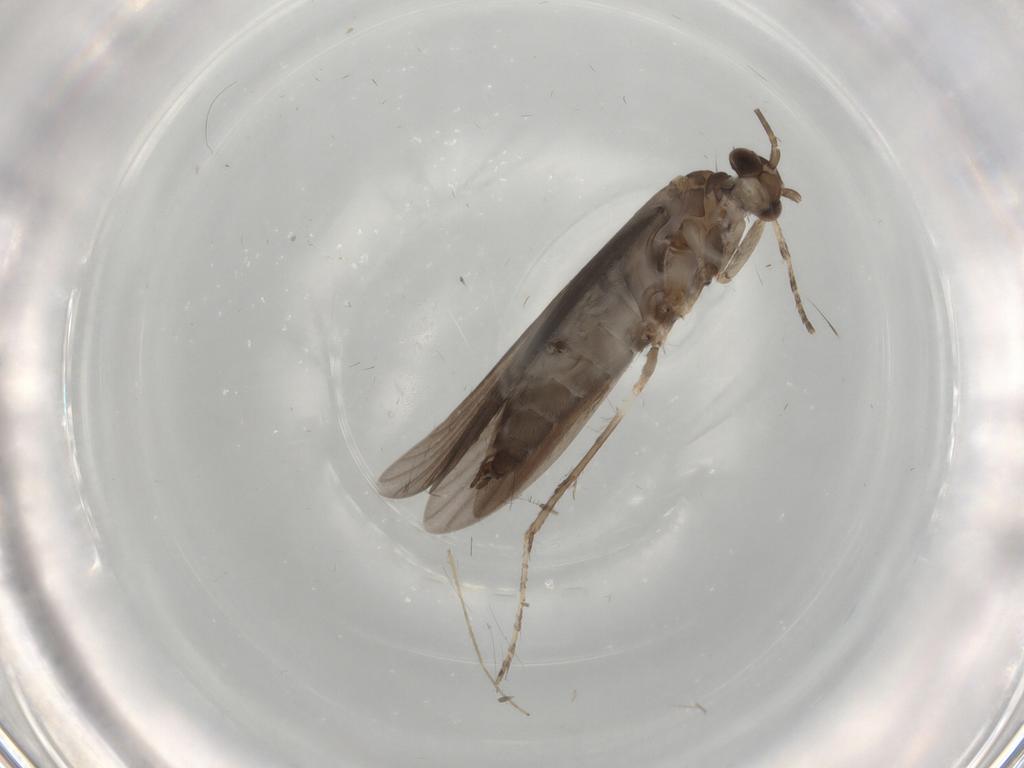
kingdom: Animalia
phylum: Arthropoda
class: Insecta
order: Trichoptera
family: Xiphocentronidae
